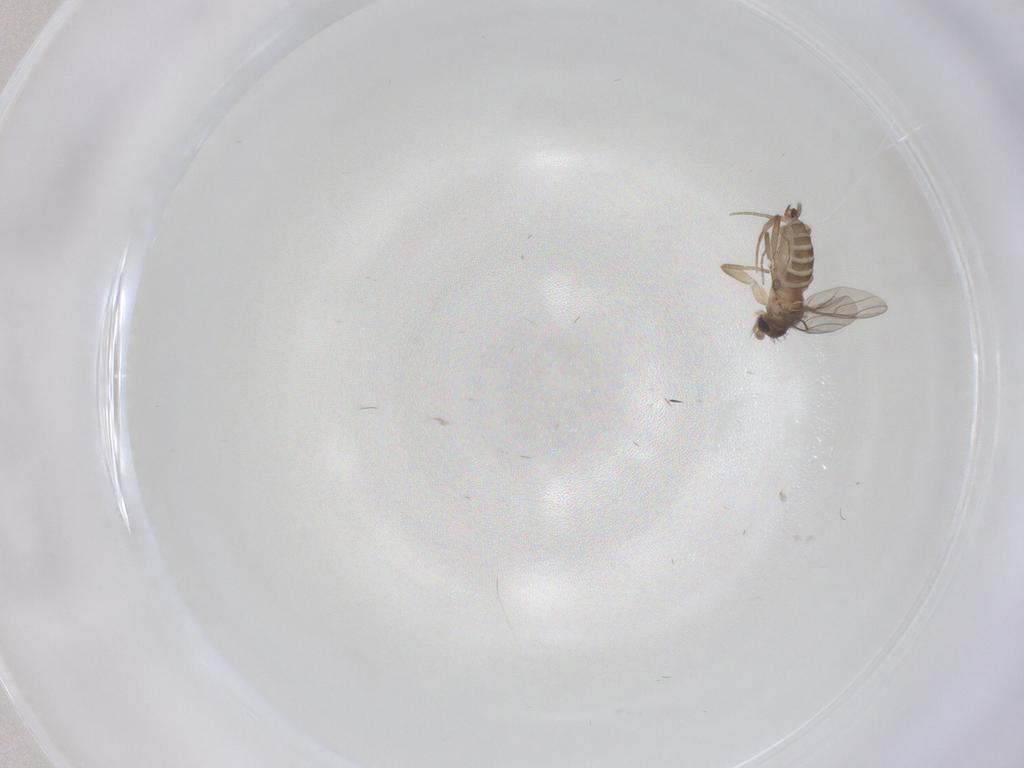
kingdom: Animalia
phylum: Arthropoda
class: Insecta
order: Diptera
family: Phoridae
